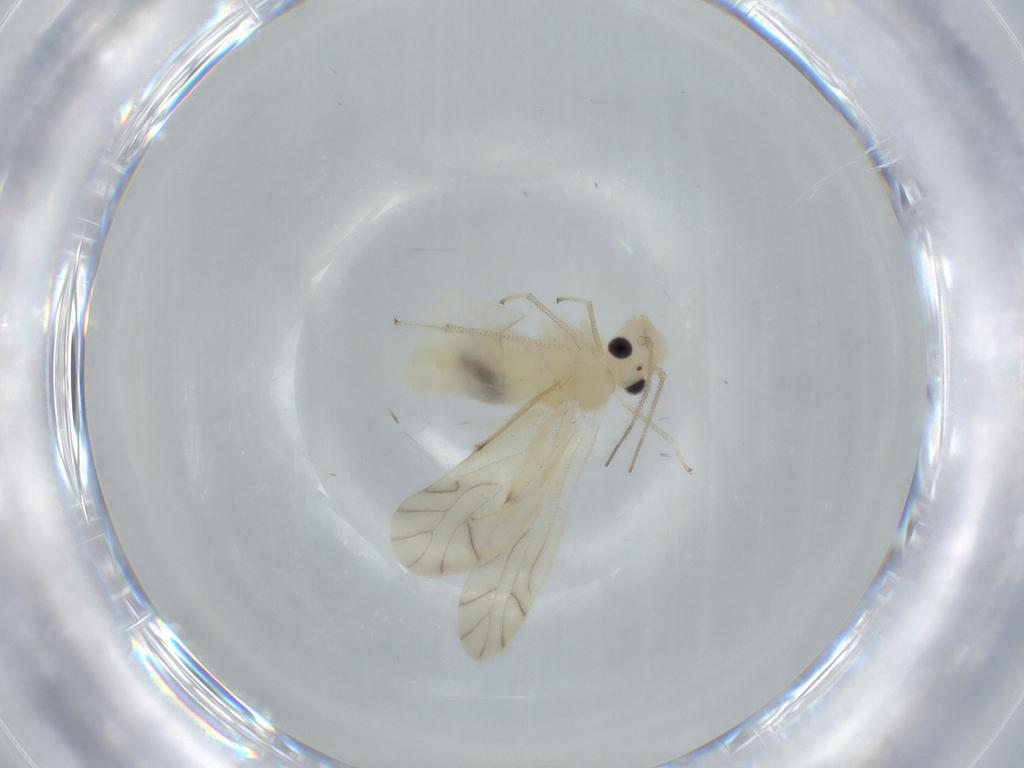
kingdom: Animalia
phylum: Arthropoda
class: Insecta
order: Psocodea
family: Caeciliusidae
